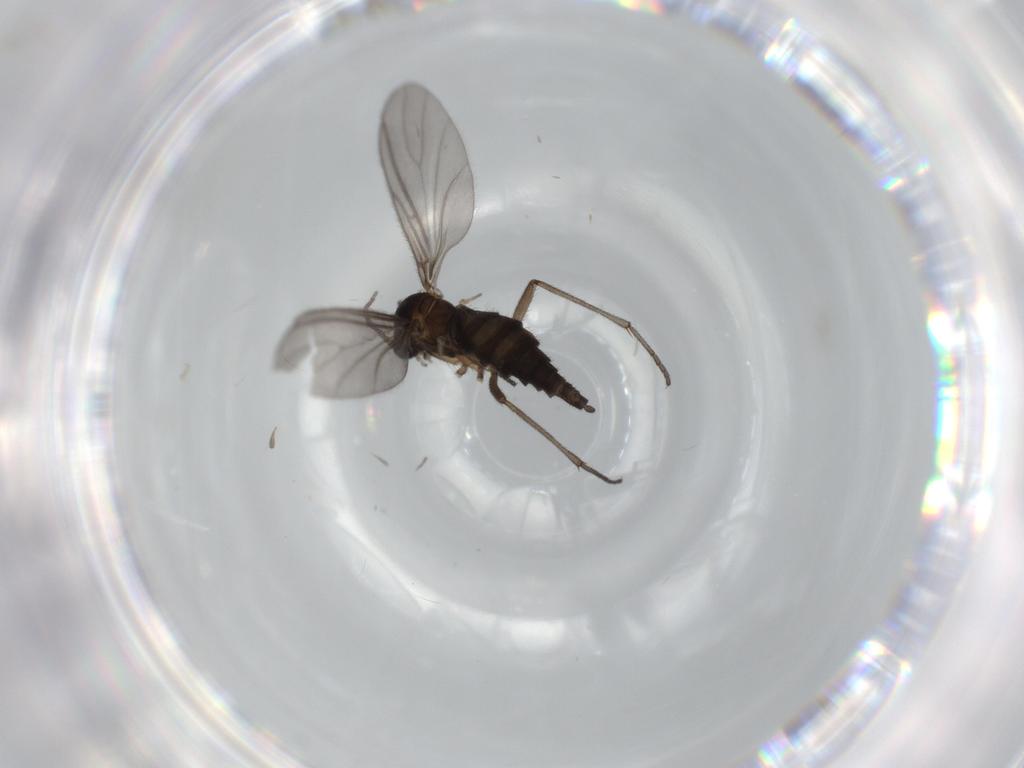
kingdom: Animalia
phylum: Arthropoda
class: Insecta
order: Diptera
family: Sciaridae
